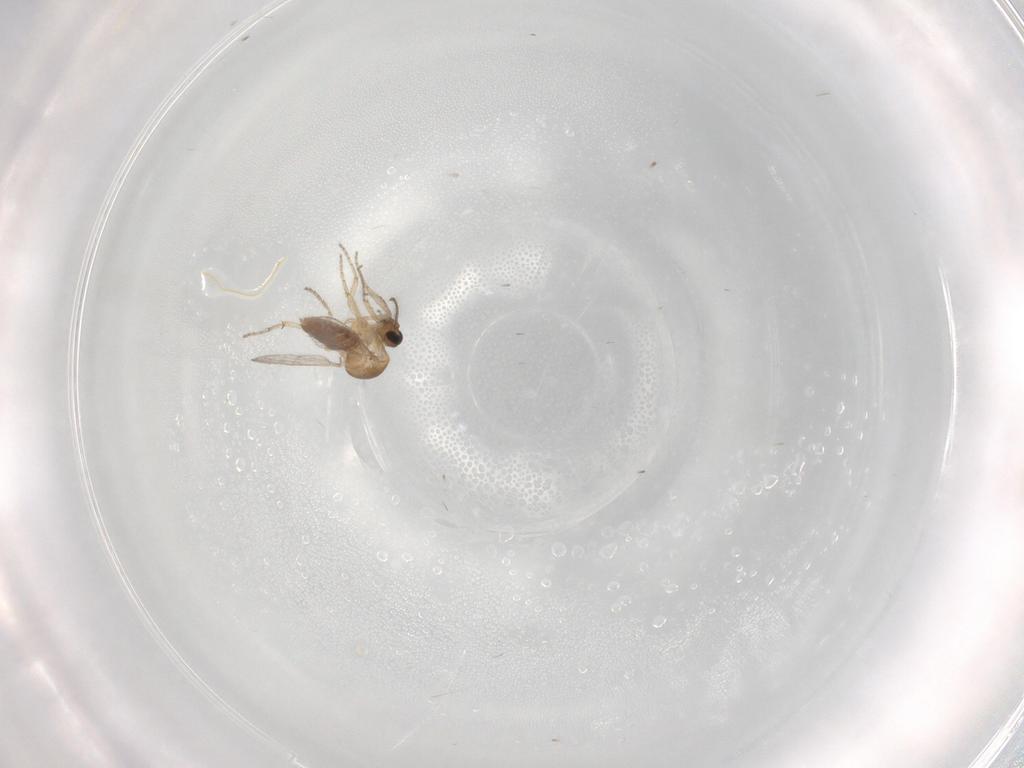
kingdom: Animalia
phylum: Arthropoda
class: Insecta
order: Diptera
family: Ceratopogonidae
